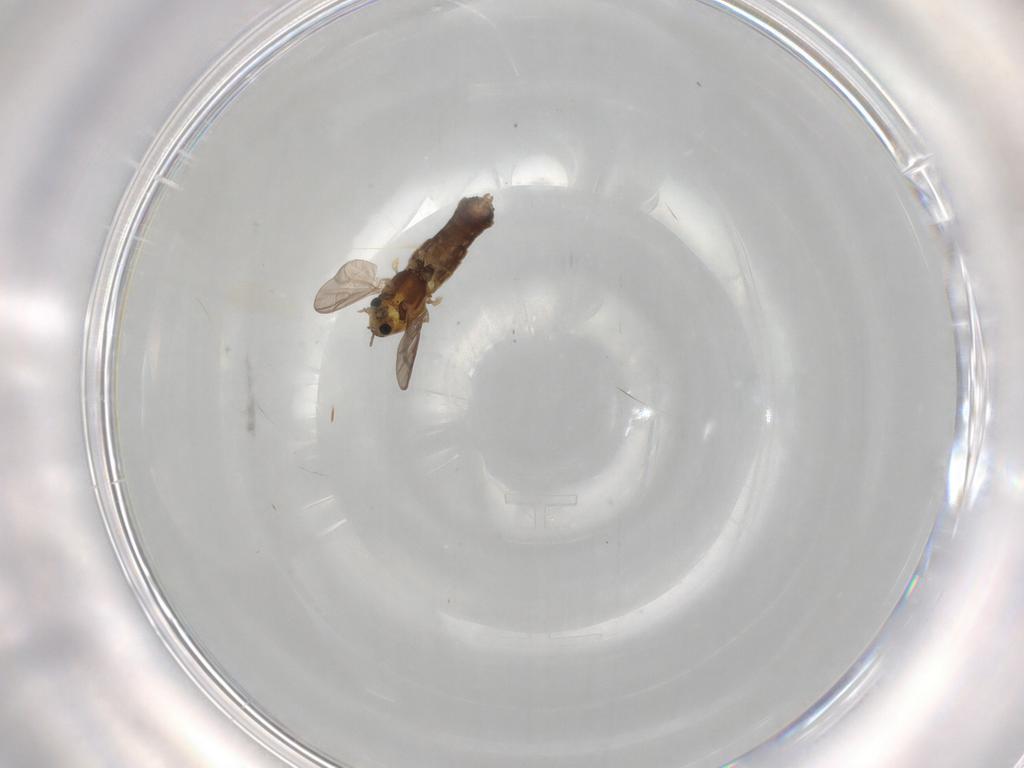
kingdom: Animalia
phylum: Arthropoda
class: Insecta
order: Diptera
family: Chironomidae
